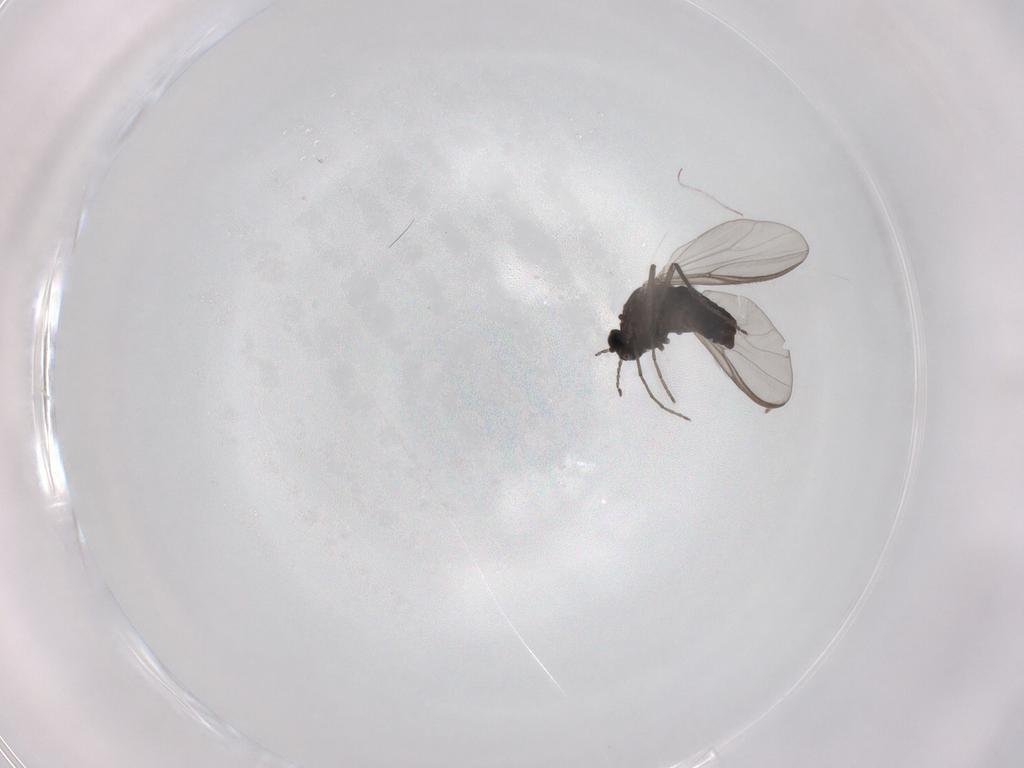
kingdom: Animalia
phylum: Arthropoda
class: Insecta
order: Diptera
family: Chironomidae
